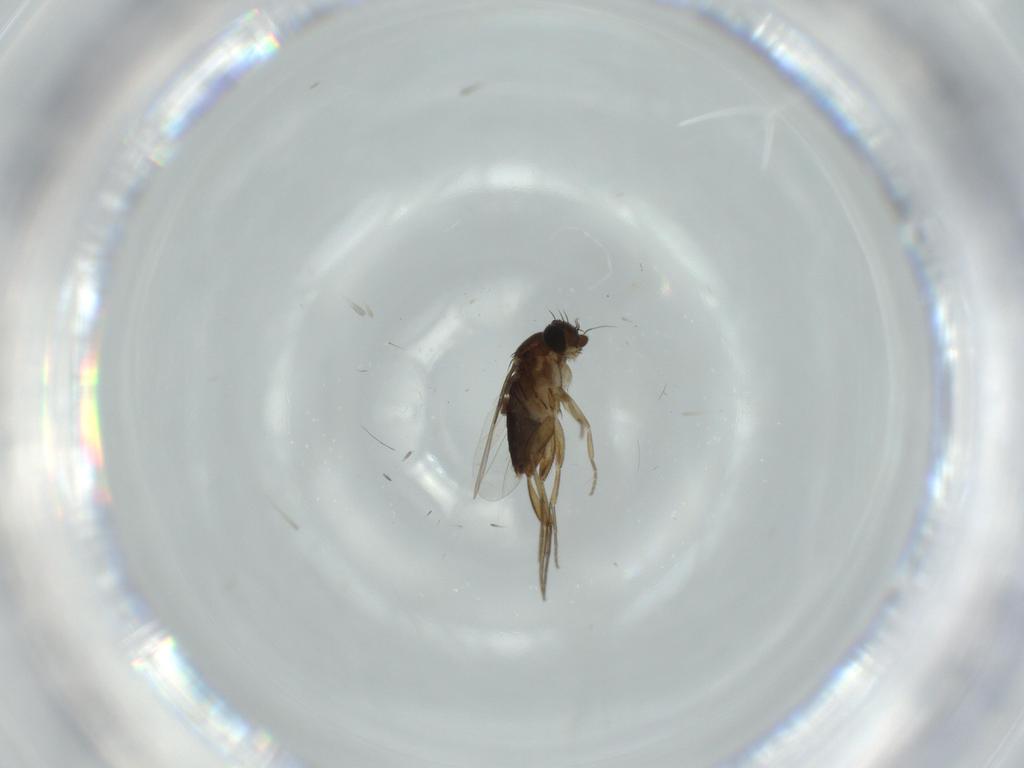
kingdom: Animalia
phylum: Arthropoda
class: Insecta
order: Diptera
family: Phoridae
